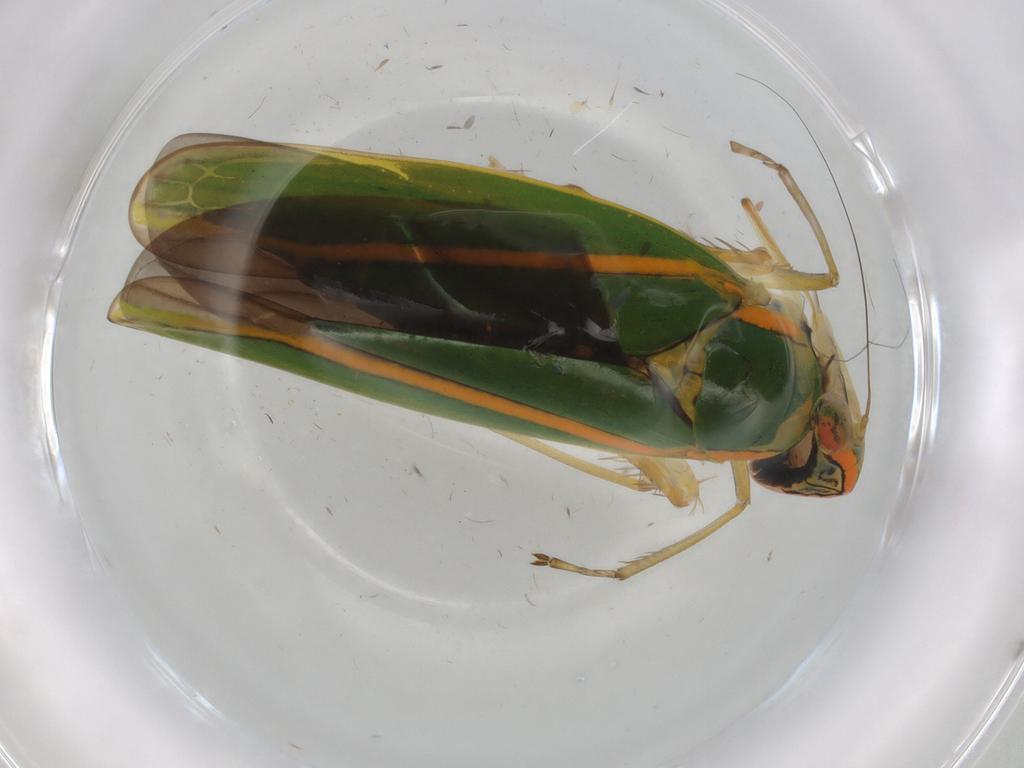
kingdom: Animalia
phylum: Arthropoda
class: Insecta
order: Hemiptera
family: Cicadellidae
